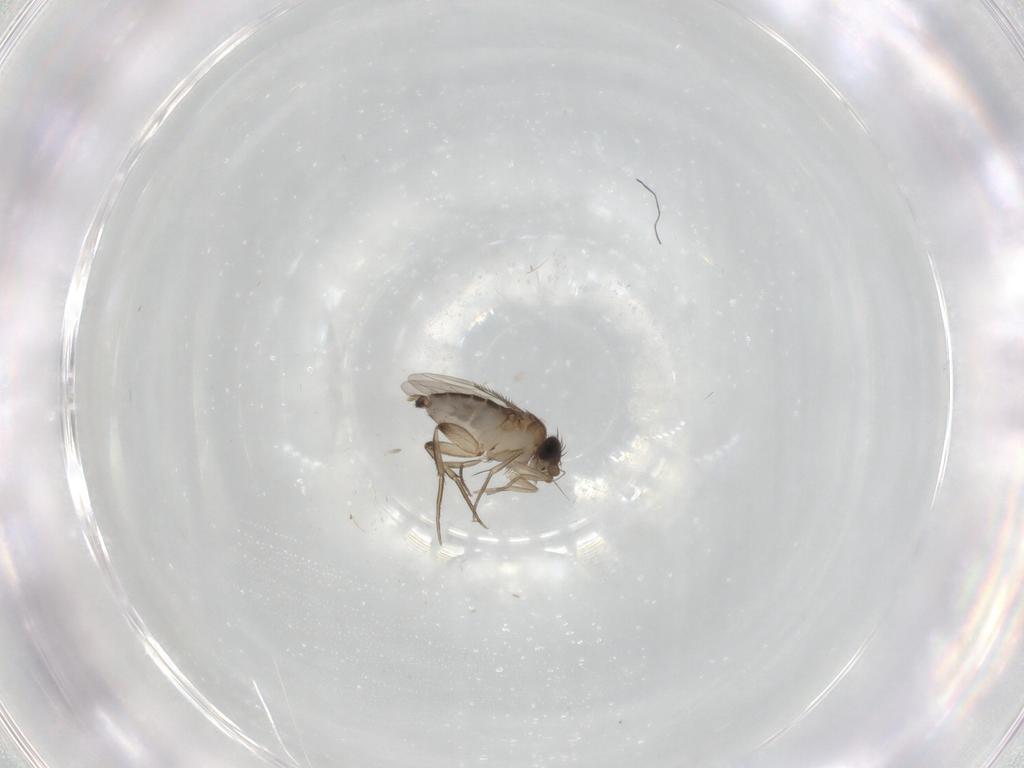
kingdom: Animalia
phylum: Arthropoda
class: Insecta
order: Diptera
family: Phoridae
